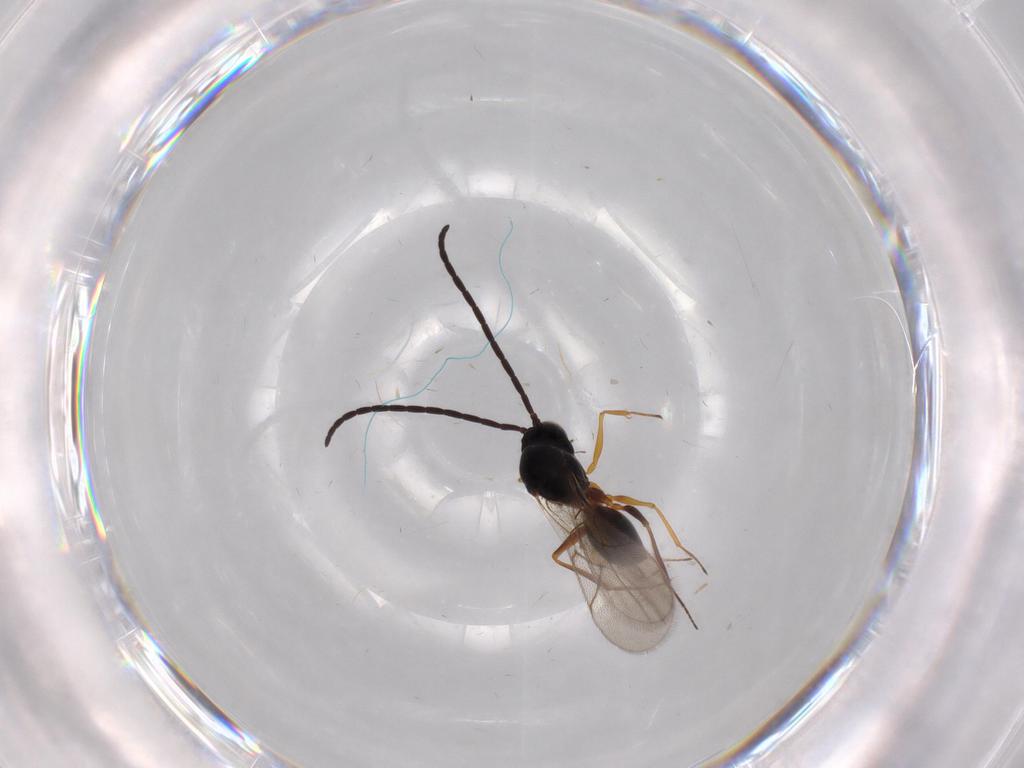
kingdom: Animalia
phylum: Arthropoda
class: Insecta
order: Hymenoptera
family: Figitidae
